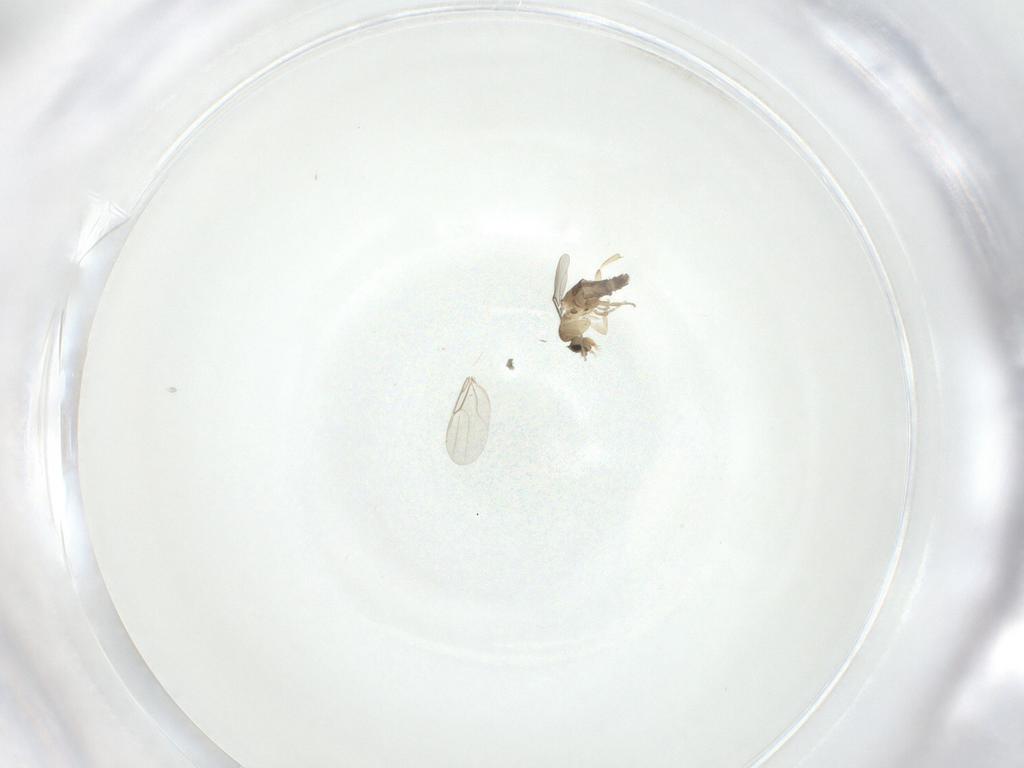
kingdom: Animalia
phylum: Arthropoda
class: Insecta
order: Diptera
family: Phoridae
